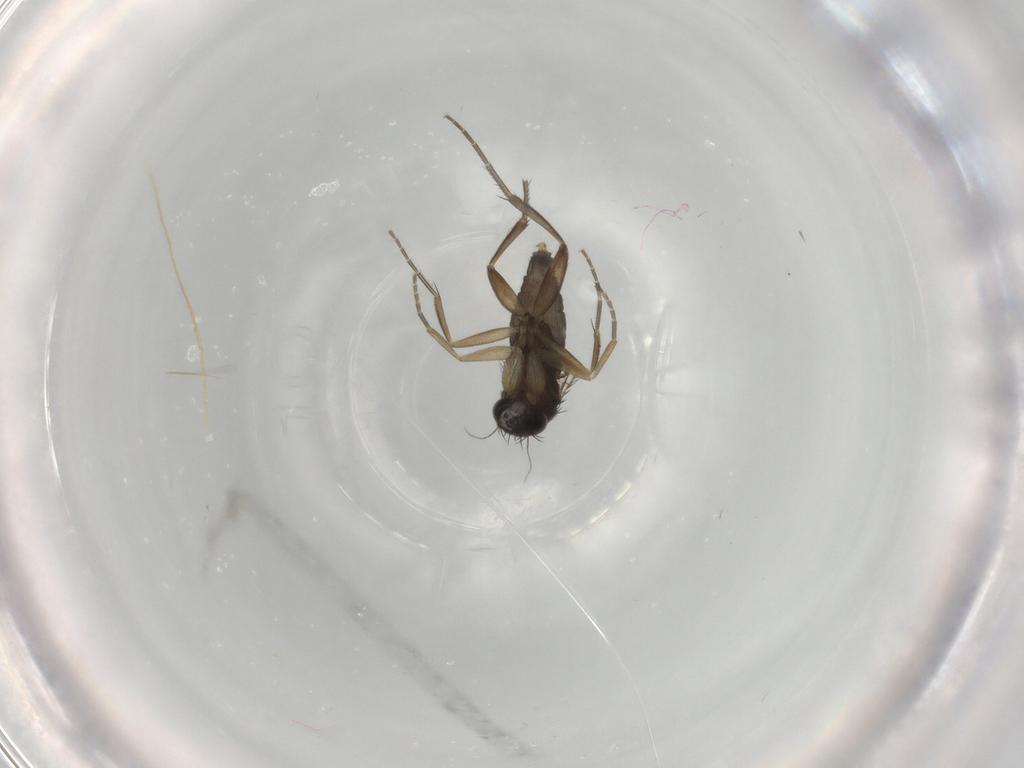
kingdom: Animalia
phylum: Arthropoda
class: Insecta
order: Diptera
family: Phoridae
